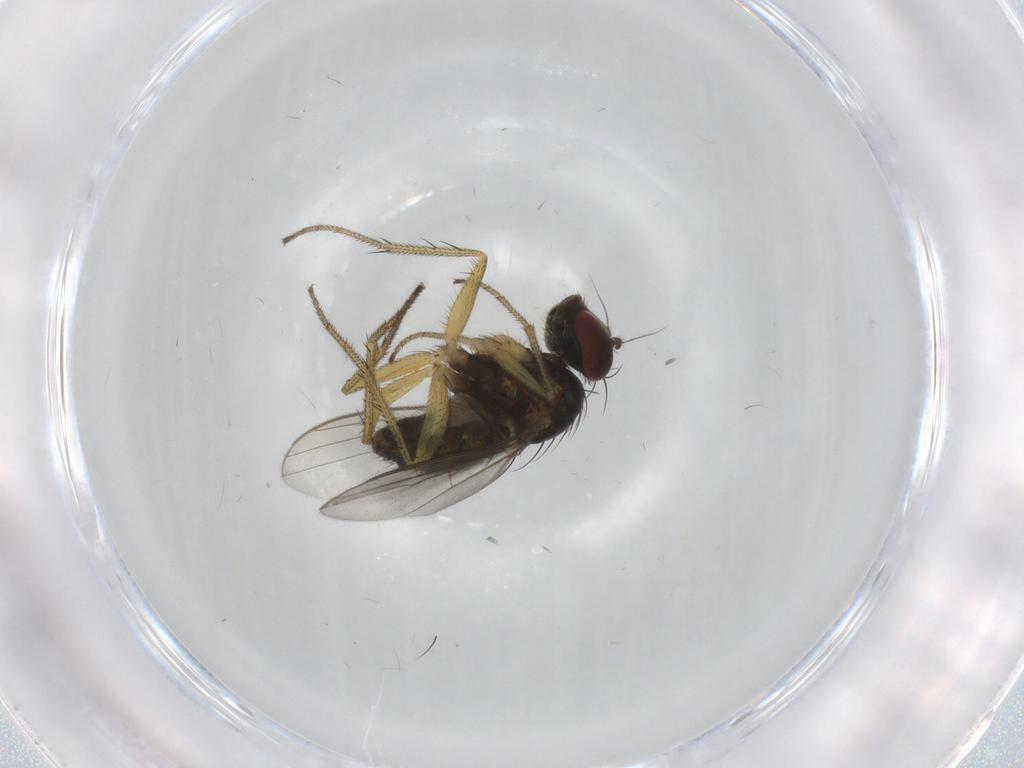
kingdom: Animalia
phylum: Arthropoda
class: Insecta
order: Diptera
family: Dolichopodidae
